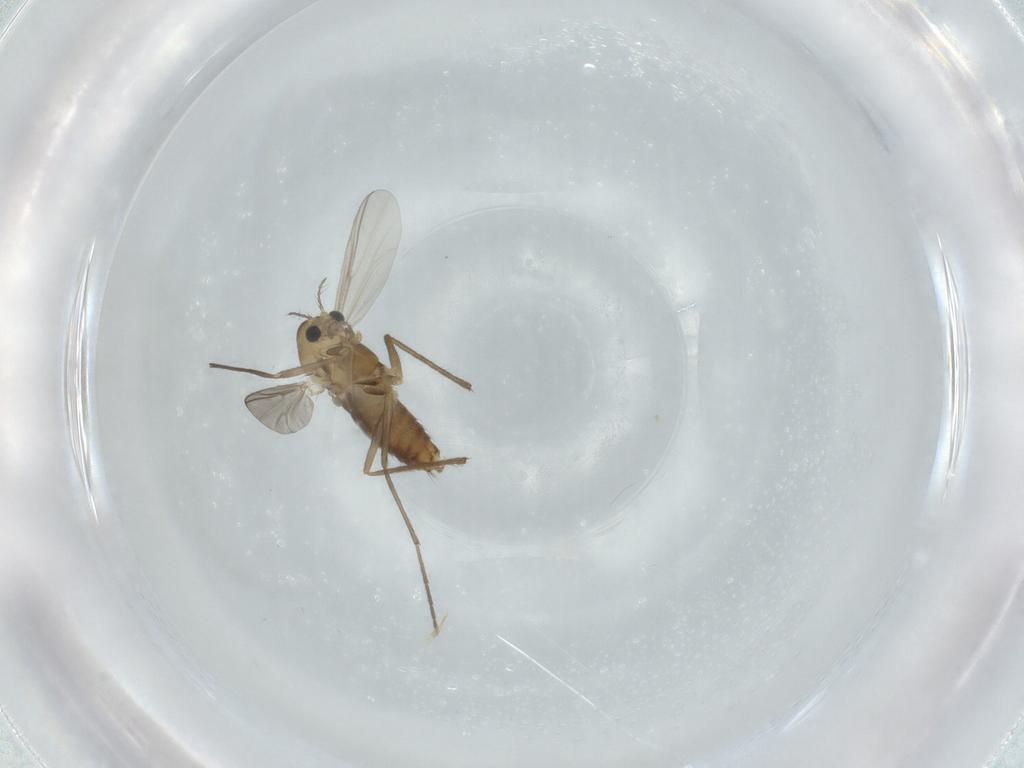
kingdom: Animalia
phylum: Arthropoda
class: Insecta
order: Diptera
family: Chironomidae
